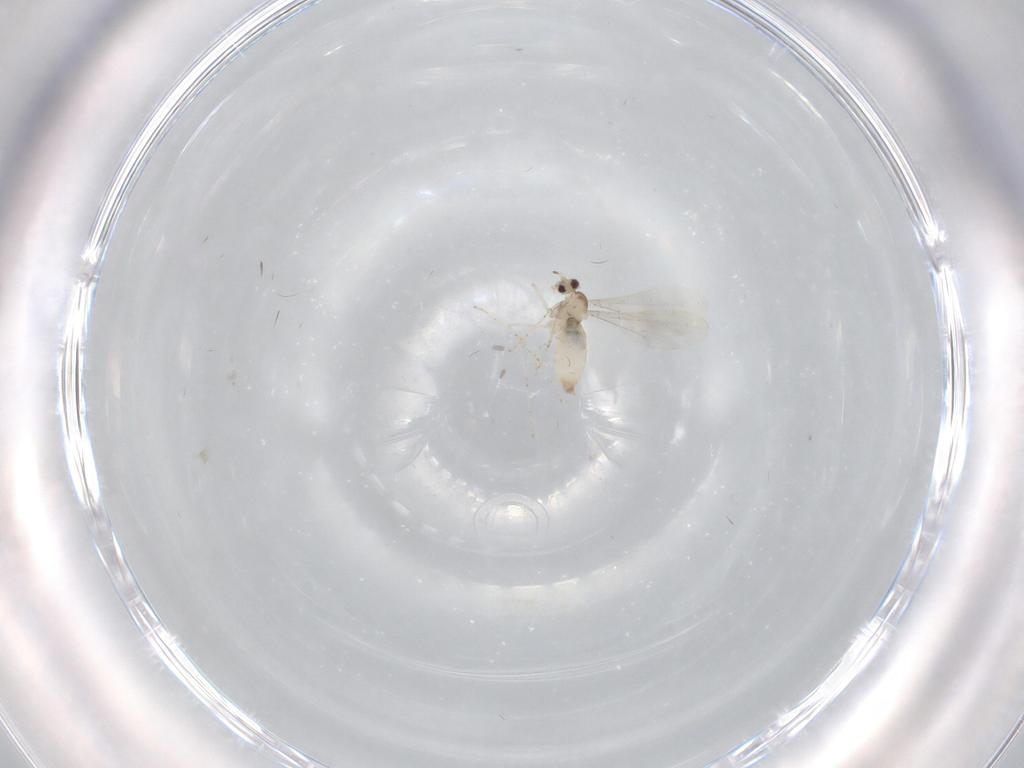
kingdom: Animalia
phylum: Arthropoda
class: Insecta
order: Diptera
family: Cecidomyiidae
